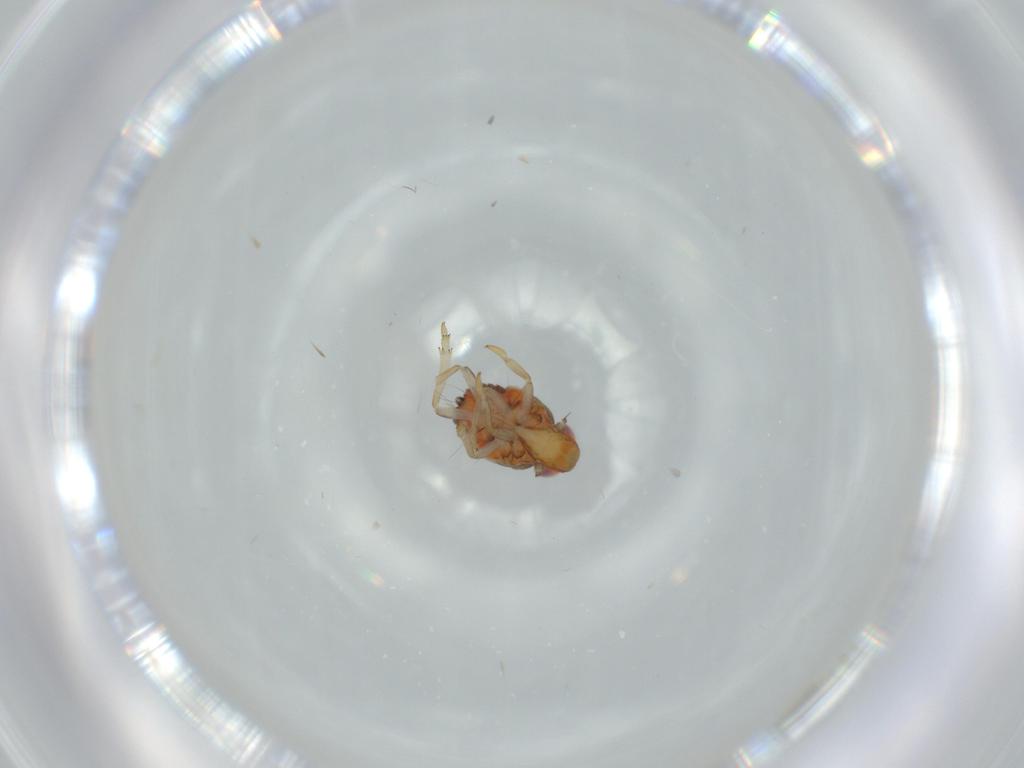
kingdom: Animalia
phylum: Arthropoda
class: Insecta
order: Hemiptera
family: Issidae
